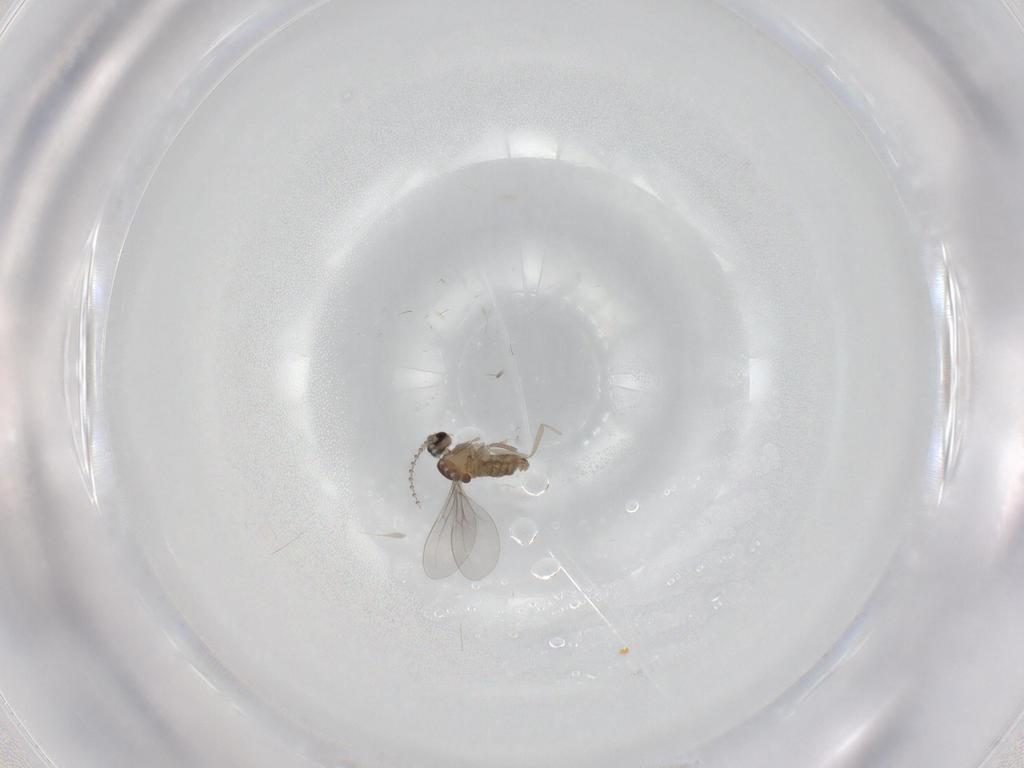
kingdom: Animalia
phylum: Arthropoda
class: Insecta
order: Diptera
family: Cecidomyiidae
